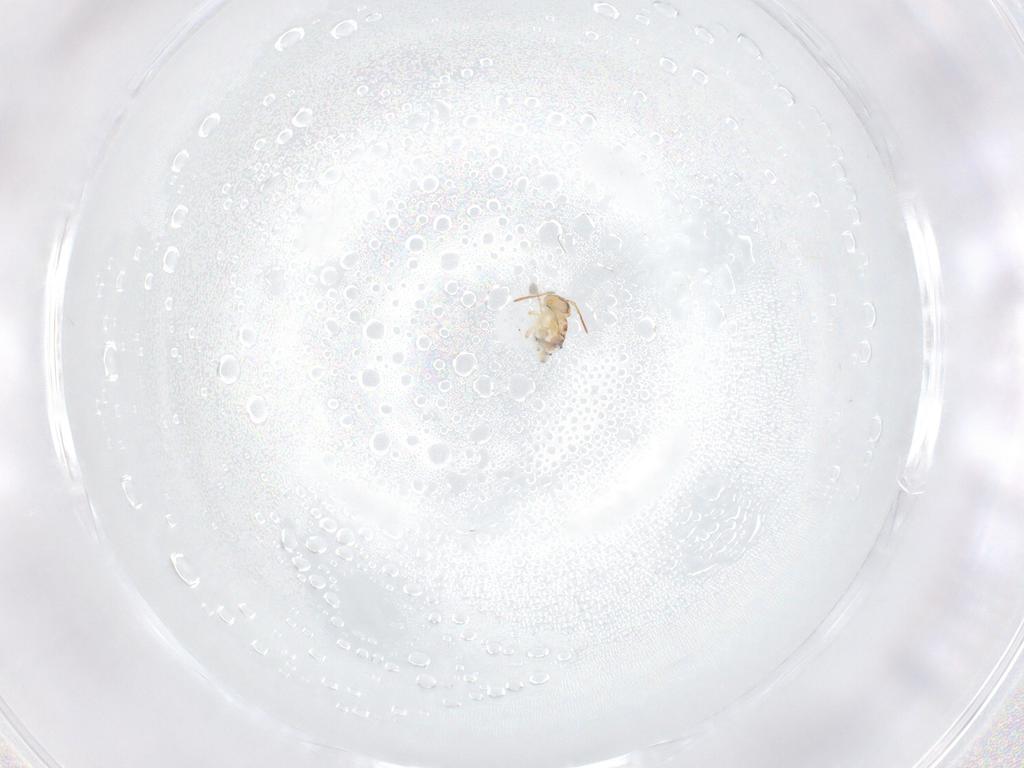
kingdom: Animalia
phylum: Arthropoda
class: Collembola
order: Symphypleona
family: Bourletiellidae
